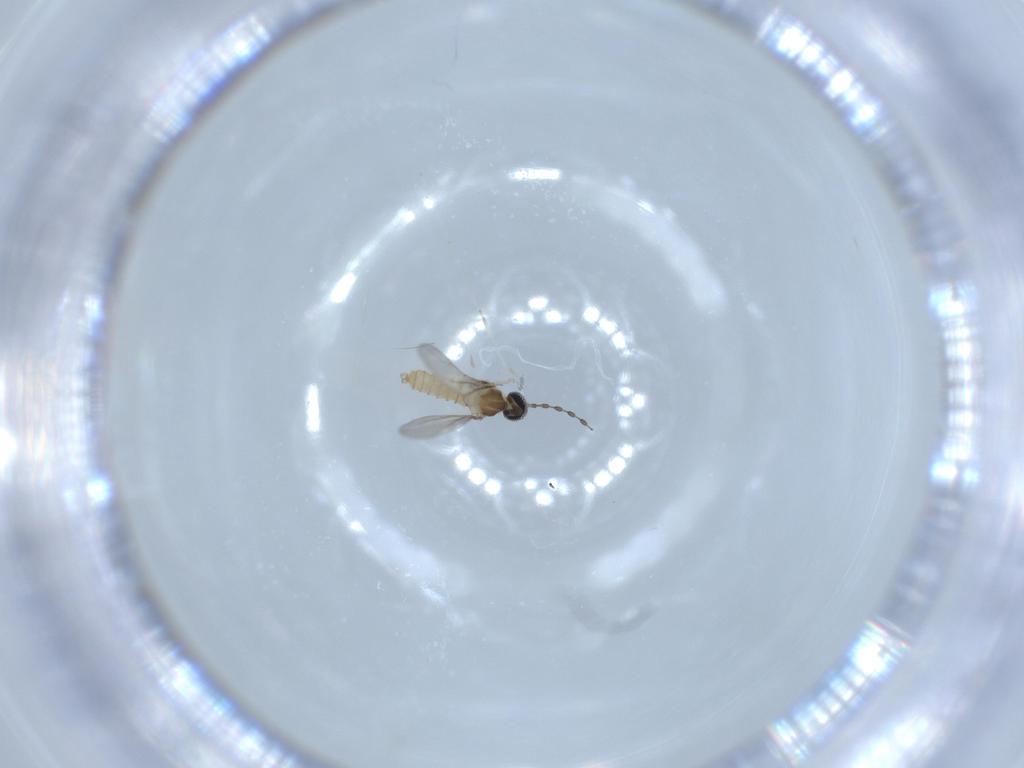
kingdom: Animalia
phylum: Arthropoda
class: Insecta
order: Diptera
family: Cecidomyiidae
